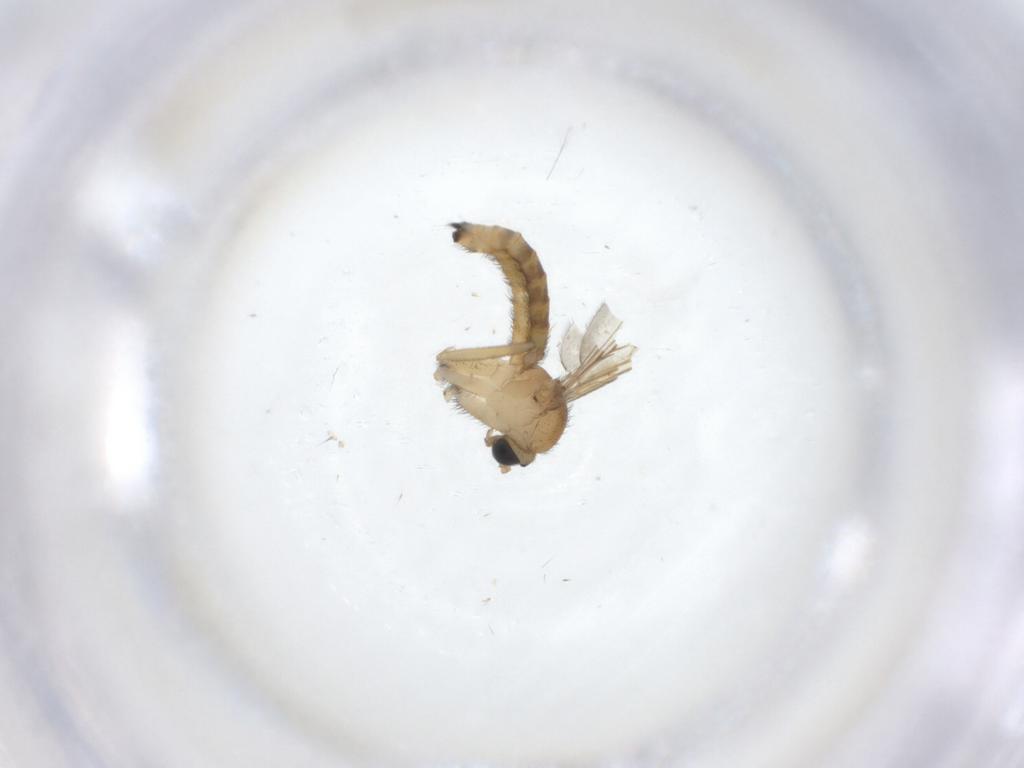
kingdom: Animalia
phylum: Arthropoda
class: Insecta
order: Diptera
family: Keroplatidae
